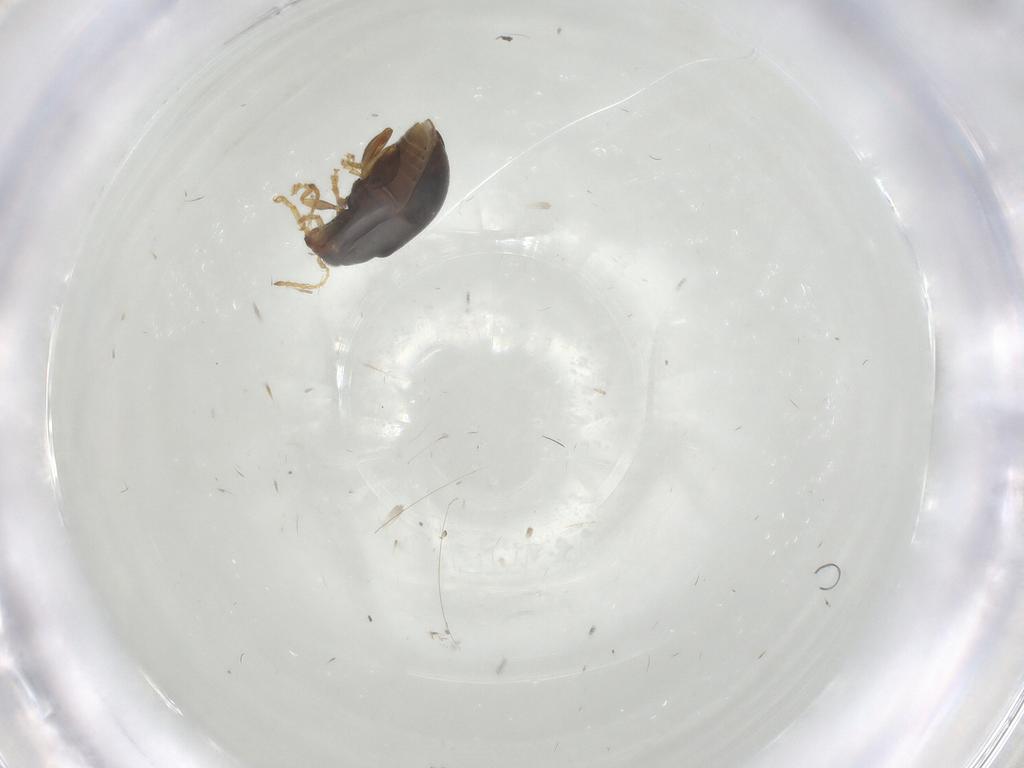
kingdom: Animalia
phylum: Arthropoda
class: Insecta
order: Coleoptera
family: Chrysomelidae
